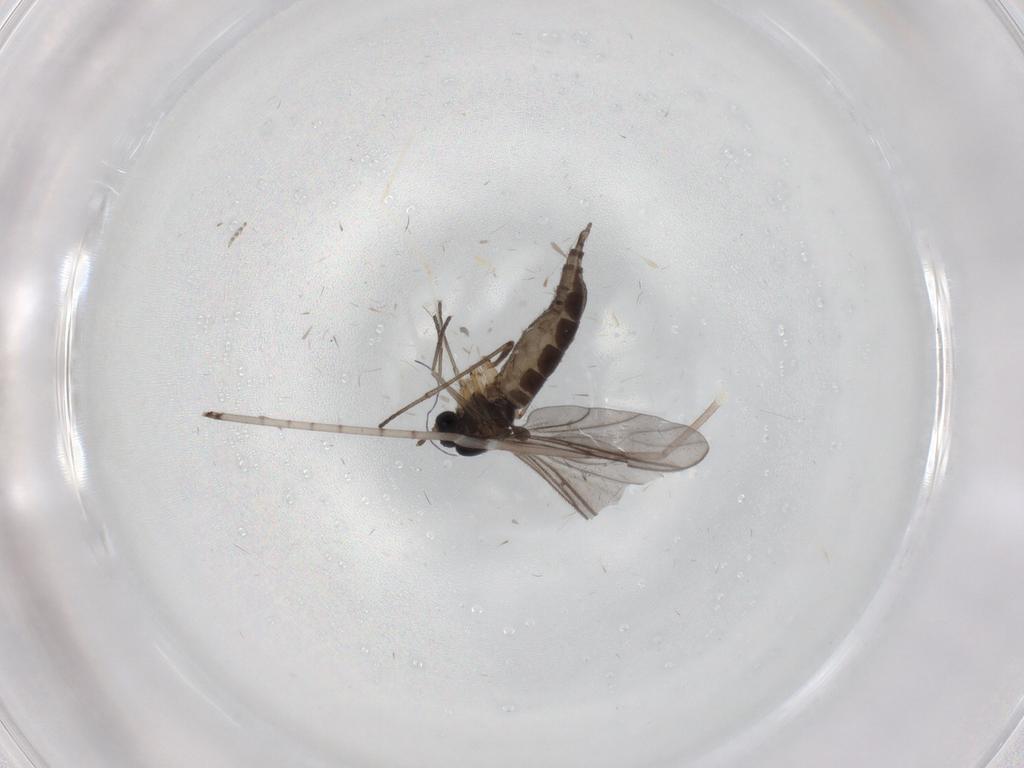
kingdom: Animalia
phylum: Arthropoda
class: Insecta
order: Diptera
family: Sciaridae
